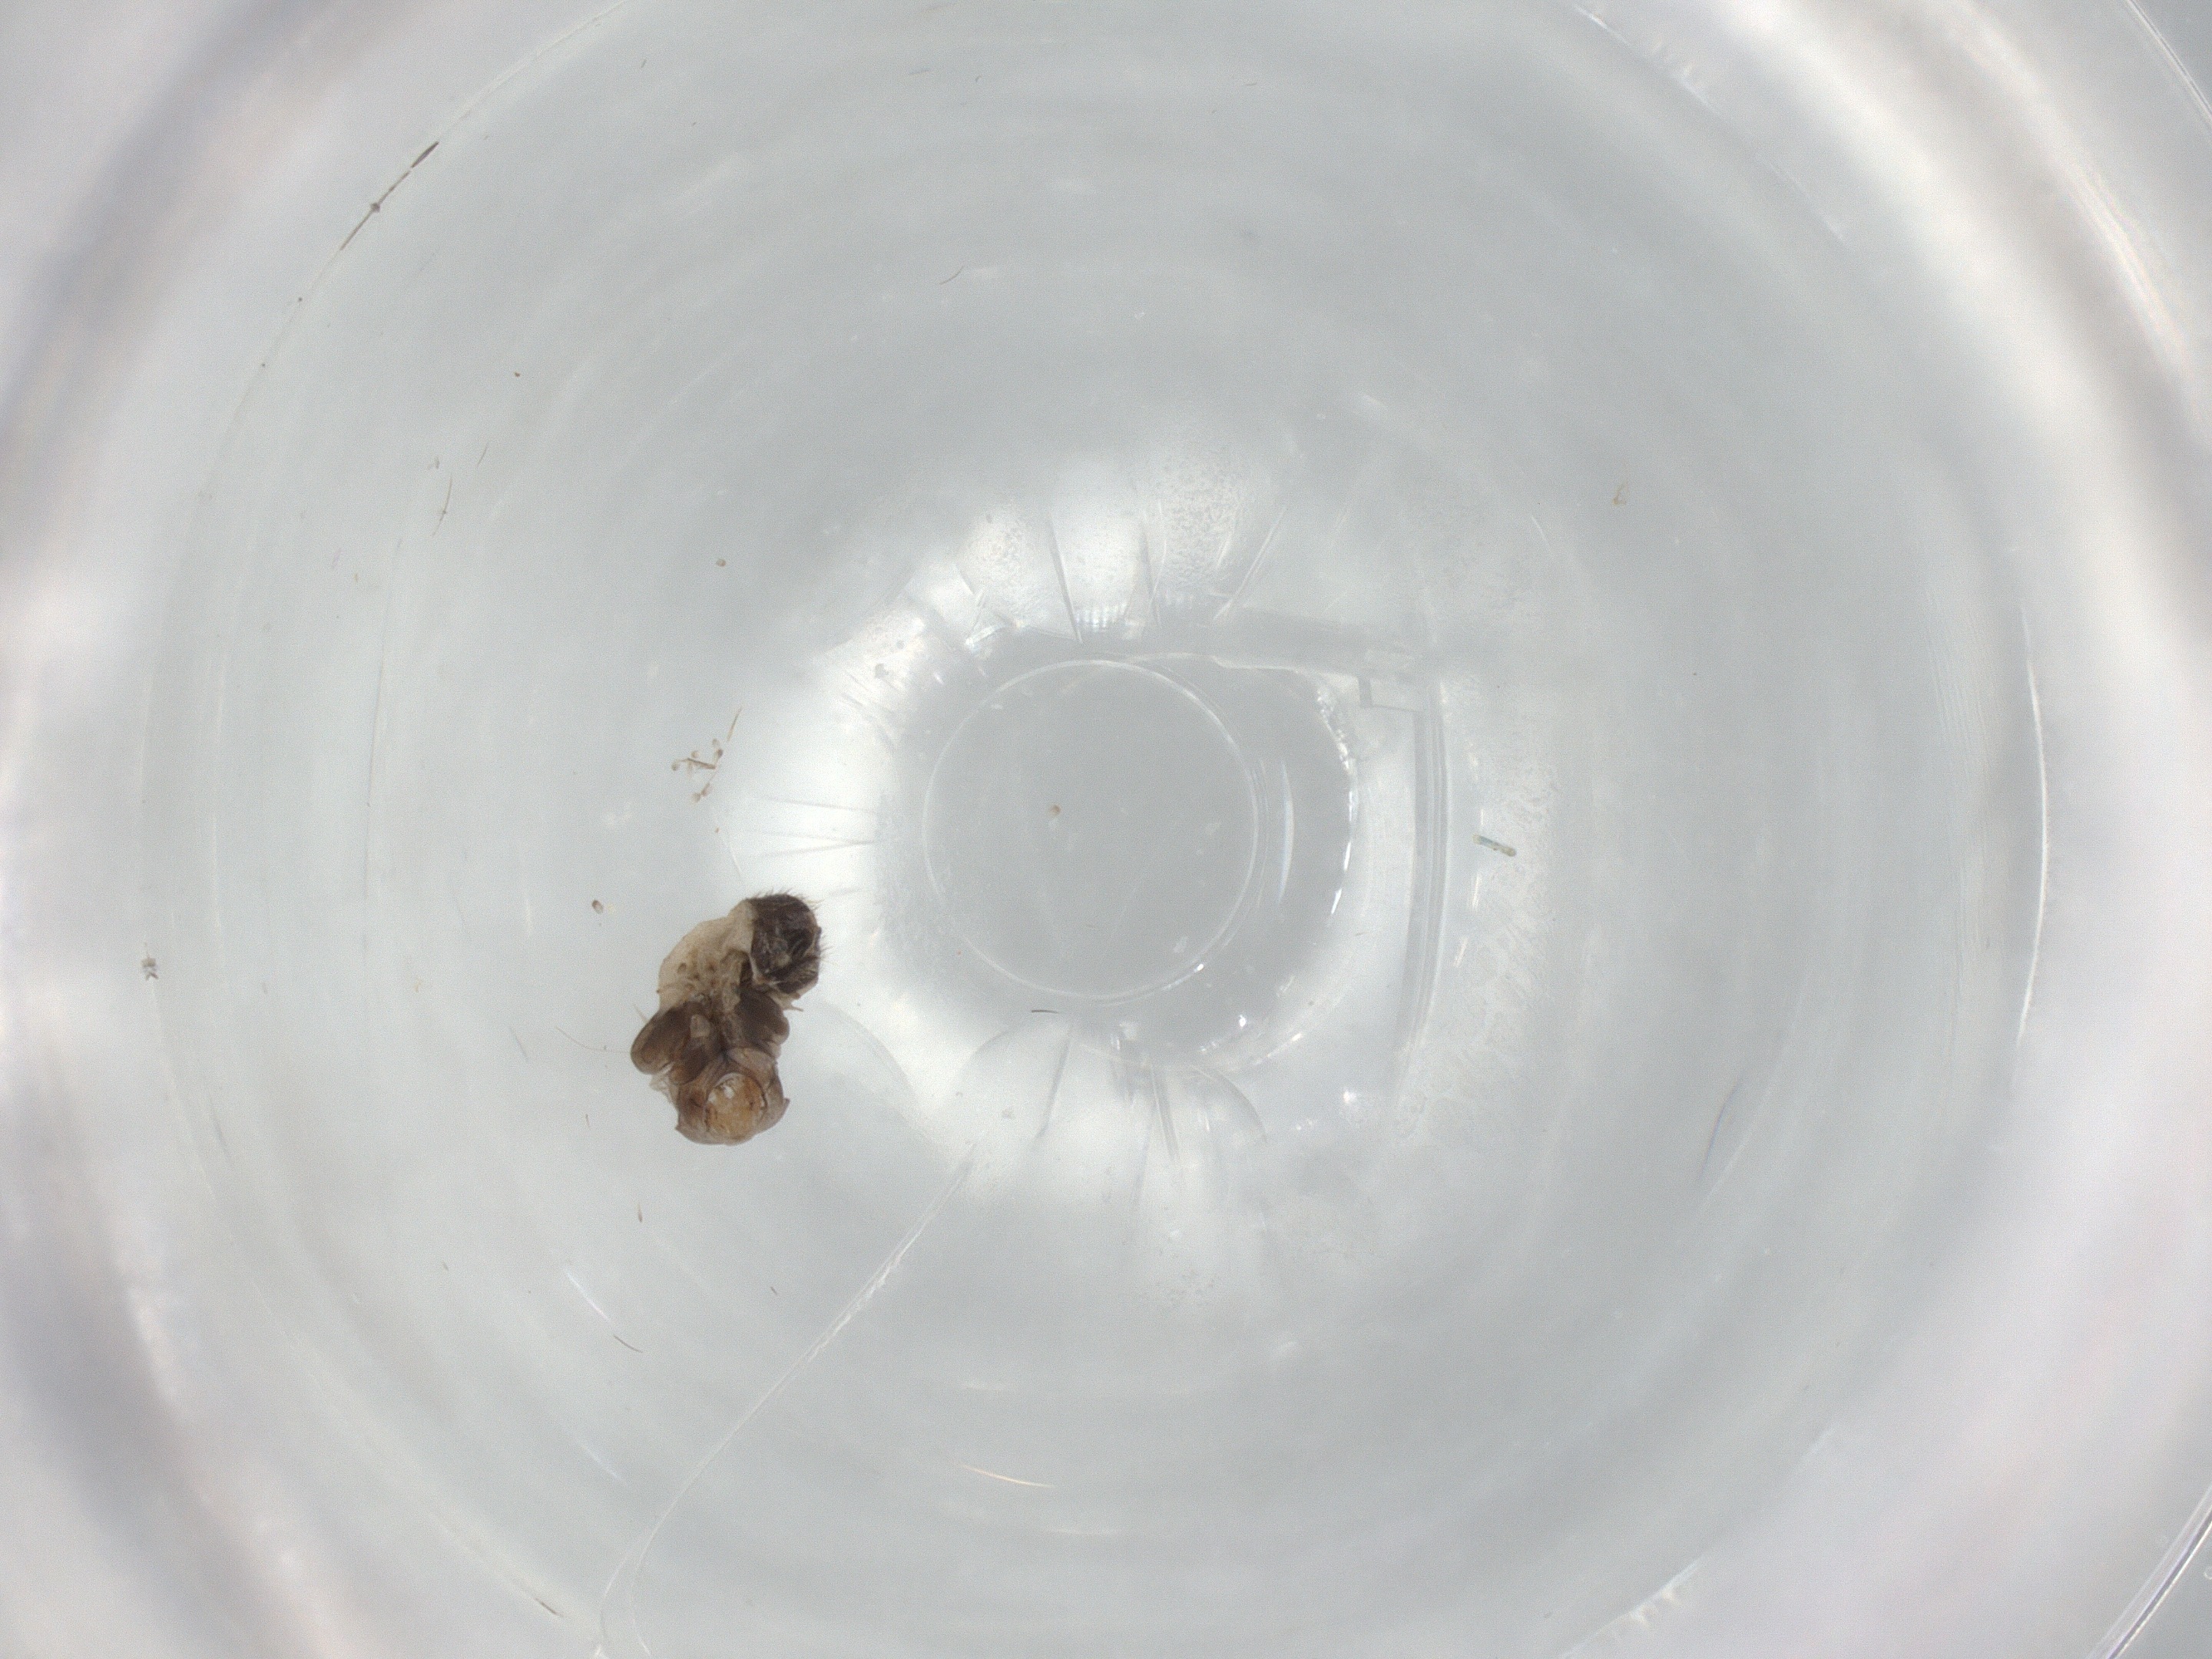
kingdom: Animalia
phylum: Arthropoda
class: Insecta
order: Psocodea
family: Lepidopsocidae
